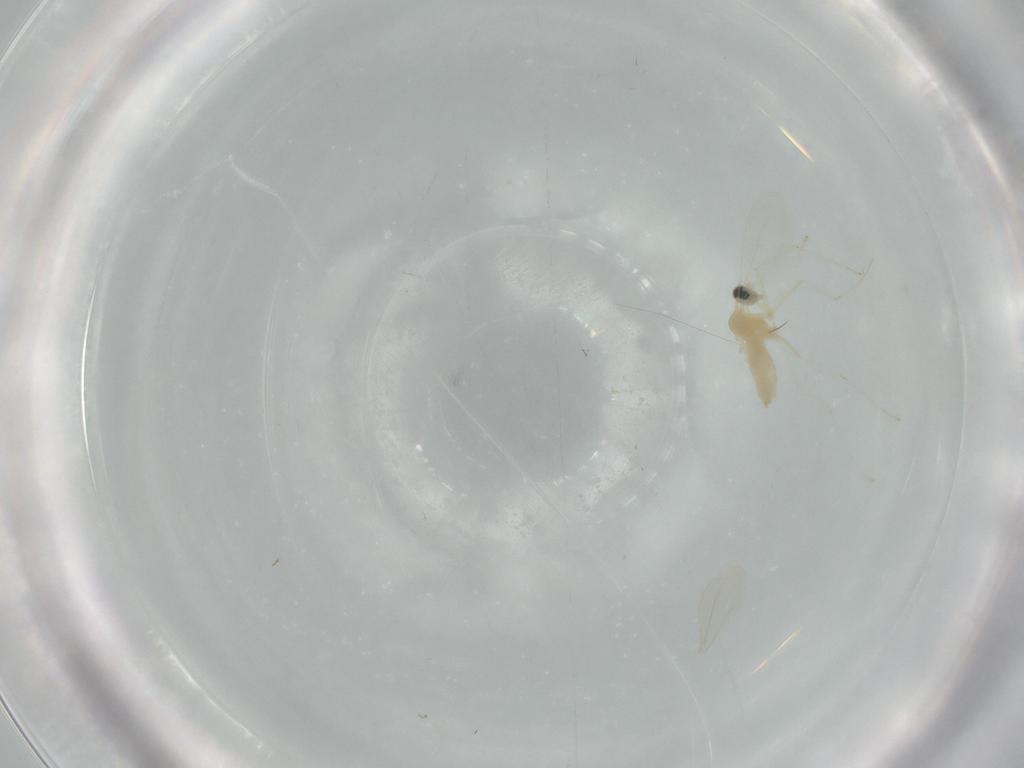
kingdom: Animalia
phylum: Arthropoda
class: Insecta
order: Diptera
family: Cecidomyiidae
